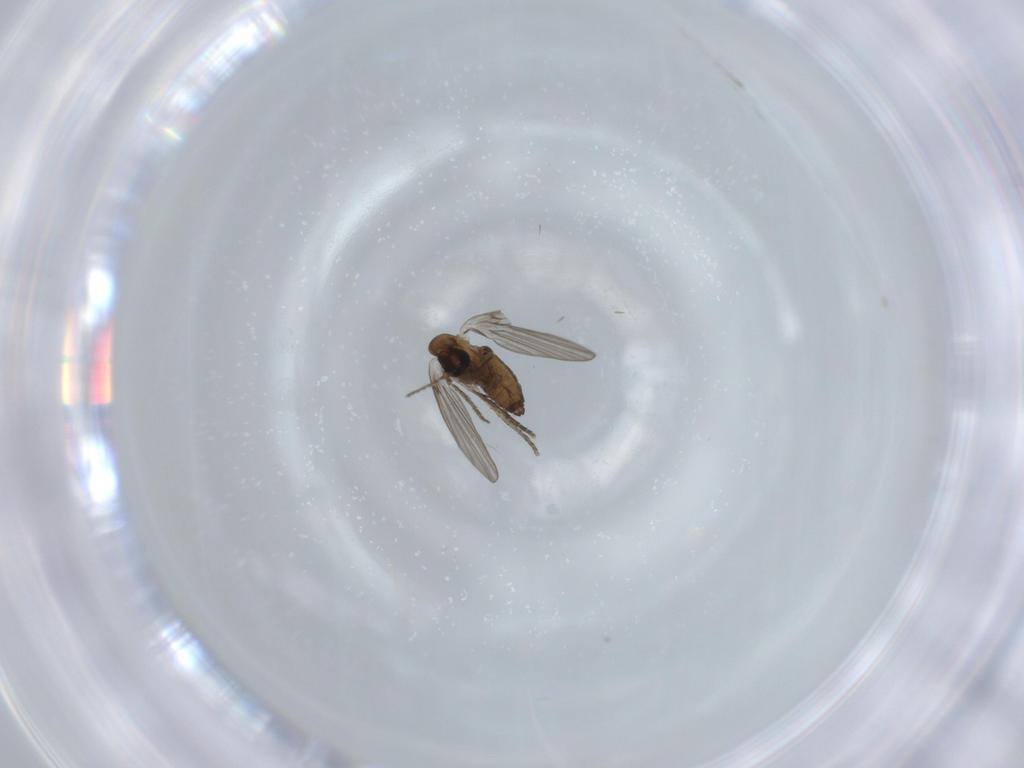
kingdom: Animalia
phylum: Arthropoda
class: Insecta
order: Diptera
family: Psychodidae
